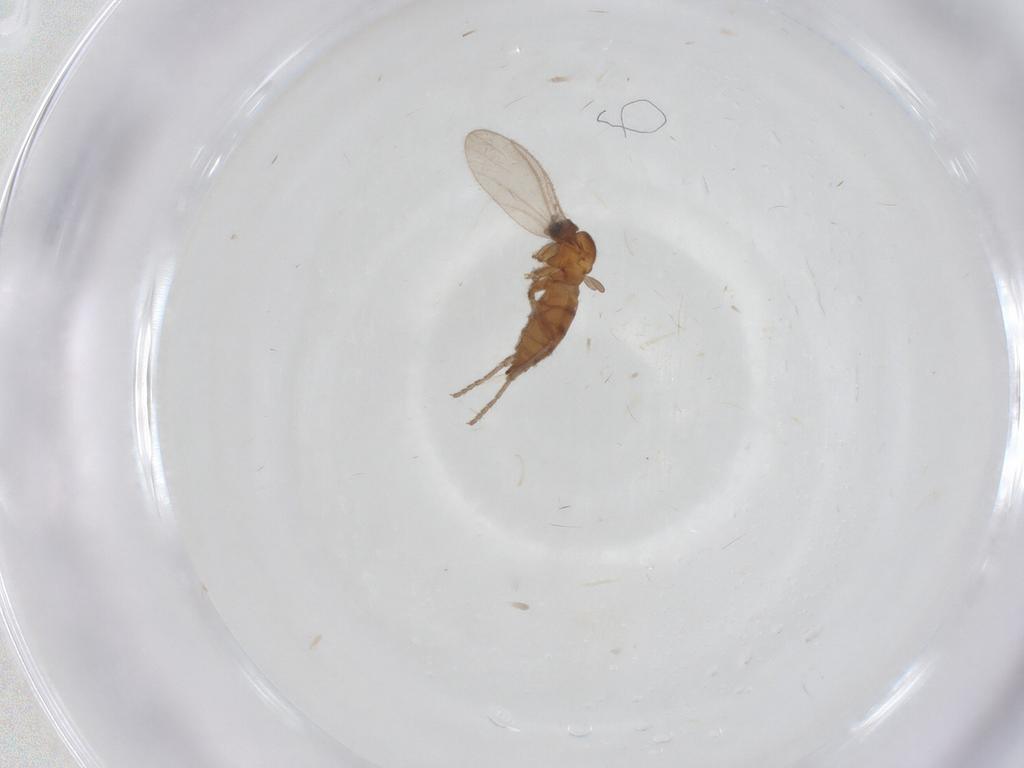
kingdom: Animalia
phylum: Arthropoda
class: Insecta
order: Diptera
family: Sciaridae
